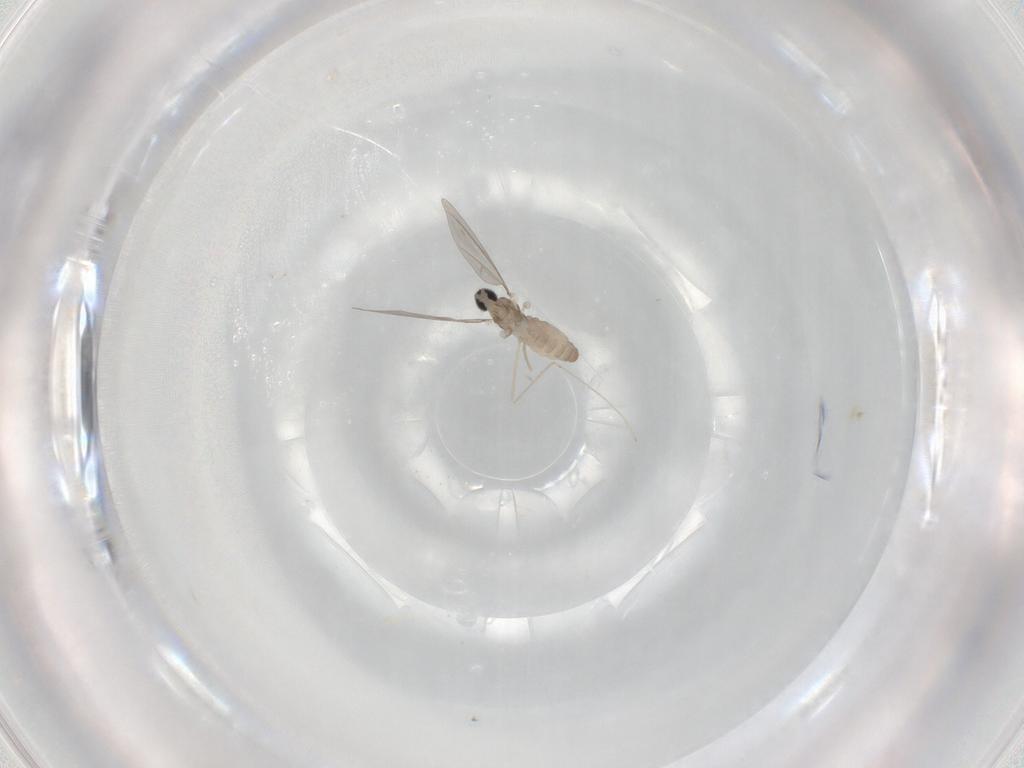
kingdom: Animalia
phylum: Arthropoda
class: Insecta
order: Diptera
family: Cecidomyiidae
